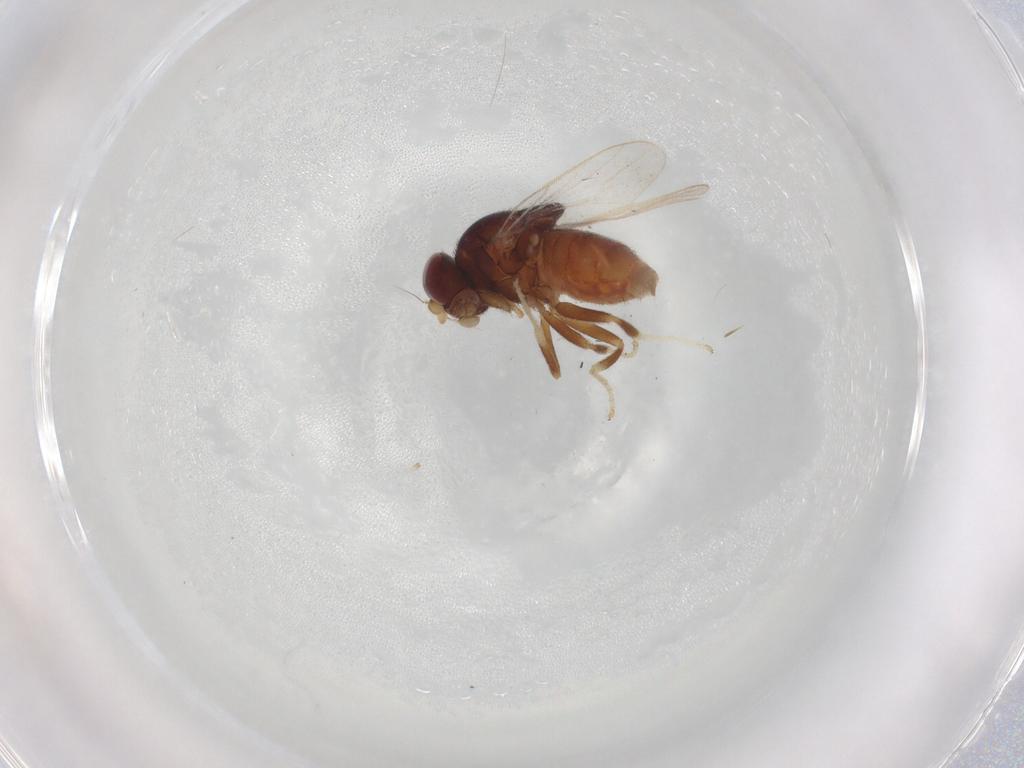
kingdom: Animalia
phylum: Arthropoda
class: Insecta
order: Diptera
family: Chloropidae
